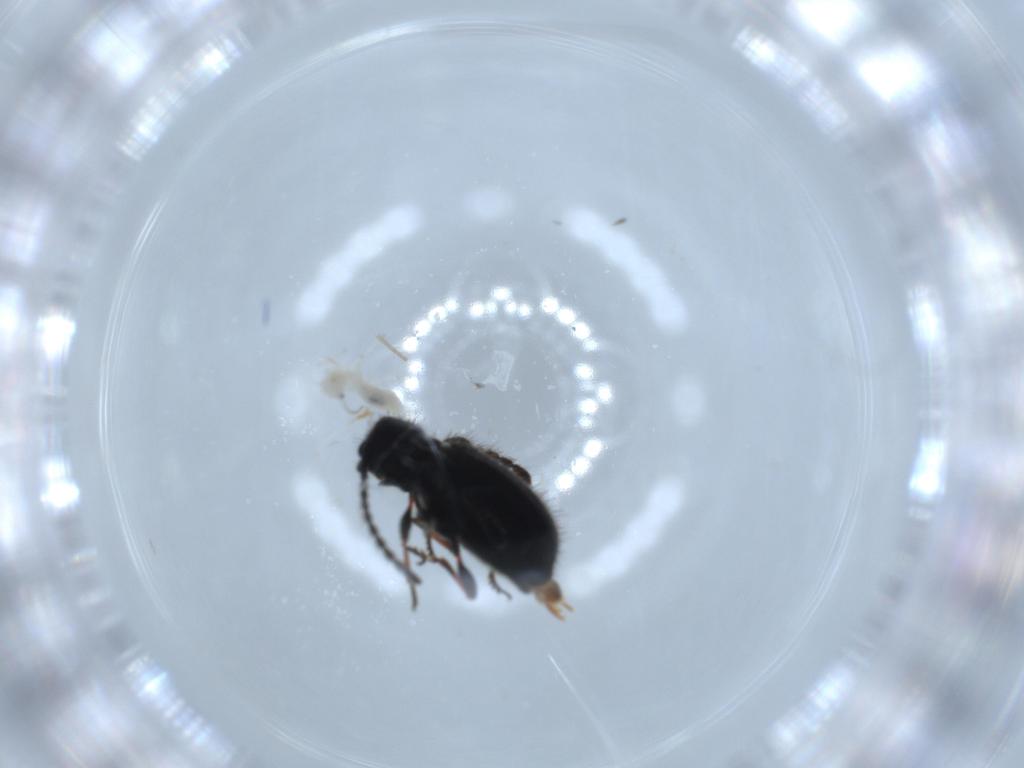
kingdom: Animalia
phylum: Arthropoda
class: Insecta
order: Coleoptera
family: Ptinidae
